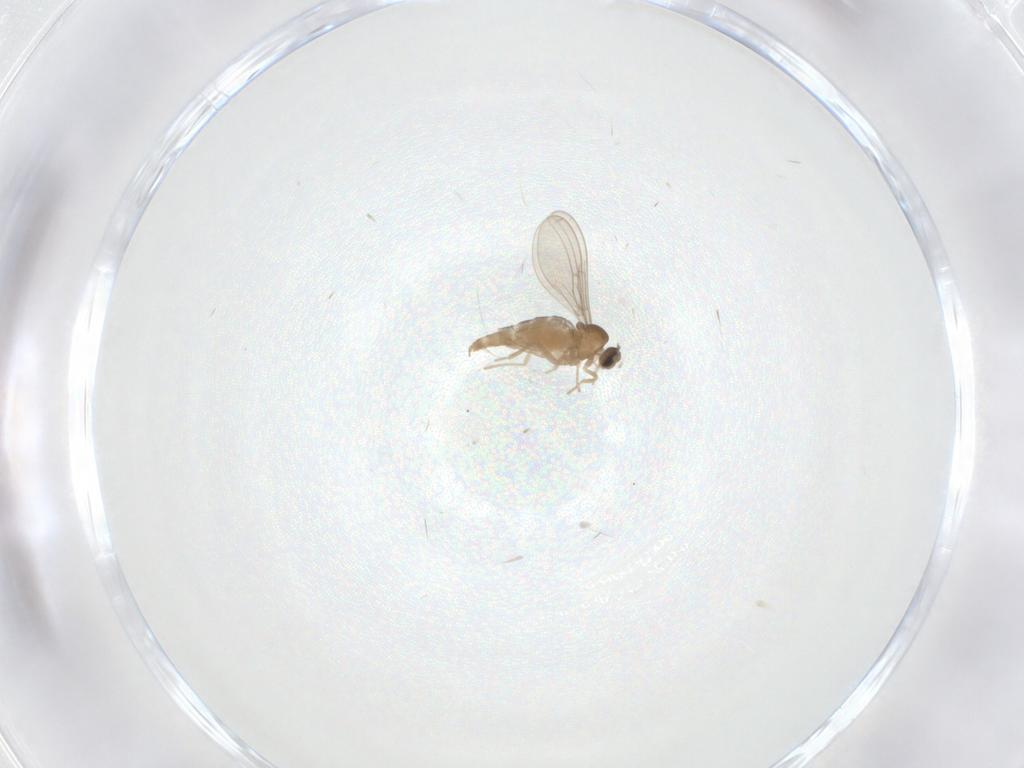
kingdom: Animalia
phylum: Arthropoda
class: Insecta
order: Diptera
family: Cecidomyiidae
